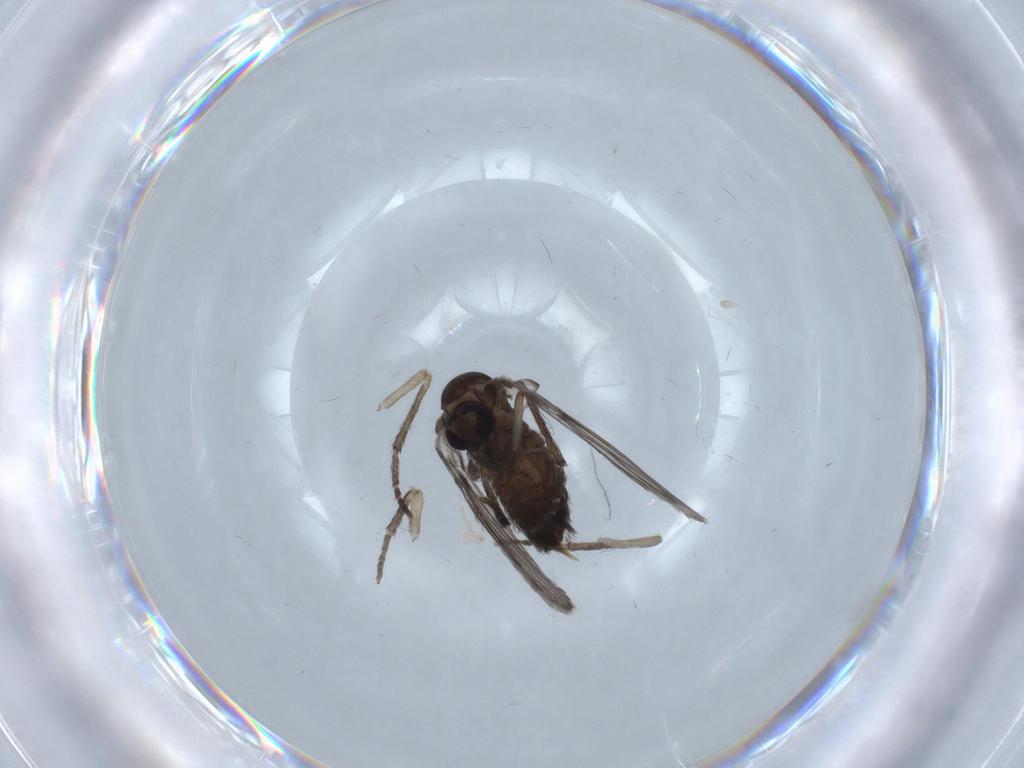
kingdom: Animalia
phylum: Arthropoda
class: Insecta
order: Diptera
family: Psychodidae
